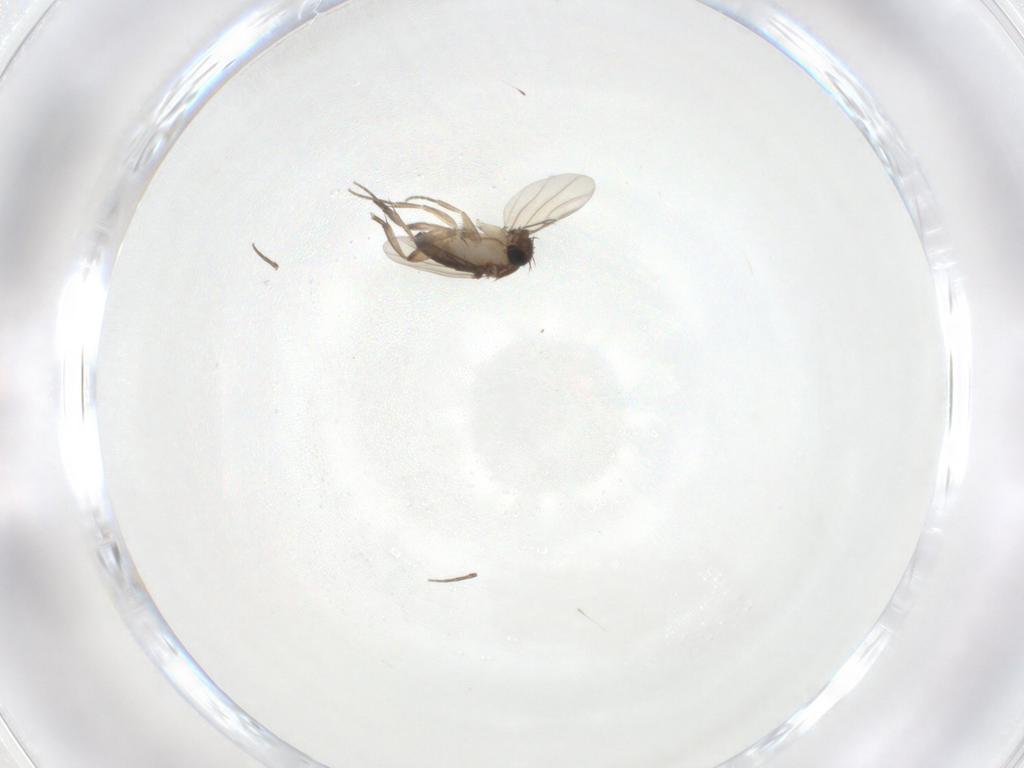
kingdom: Animalia
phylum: Arthropoda
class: Insecta
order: Diptera
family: Phoridae
